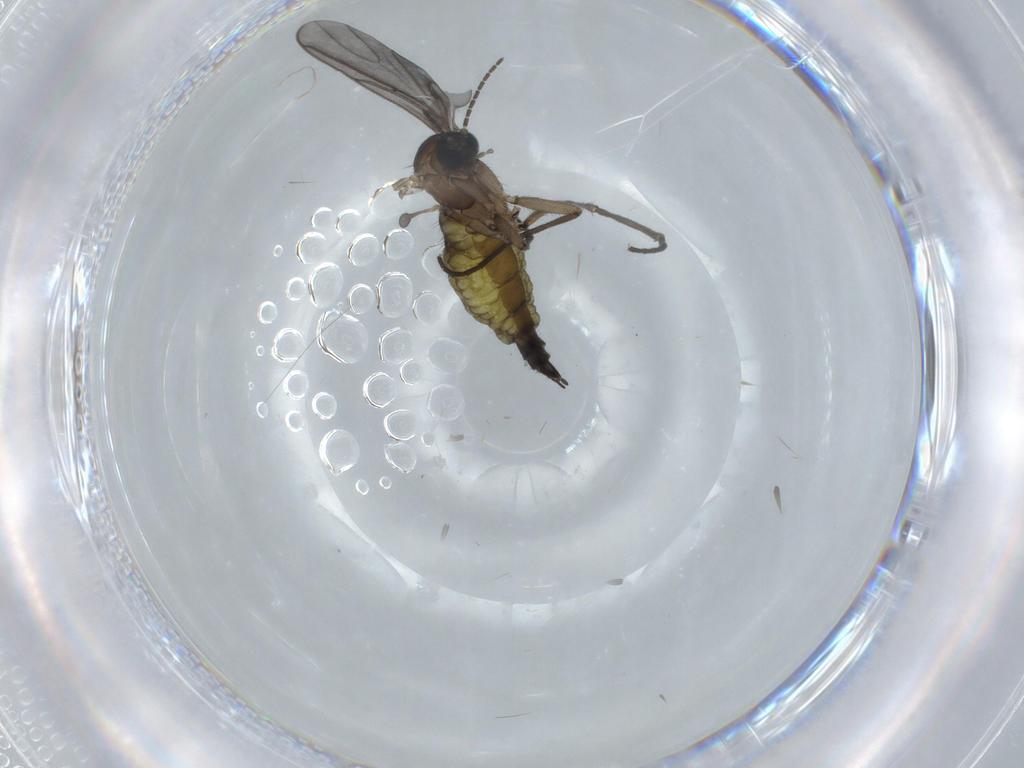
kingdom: Animalia
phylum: Arthropoda
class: Insecta
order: Diptera
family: Sciaridae
